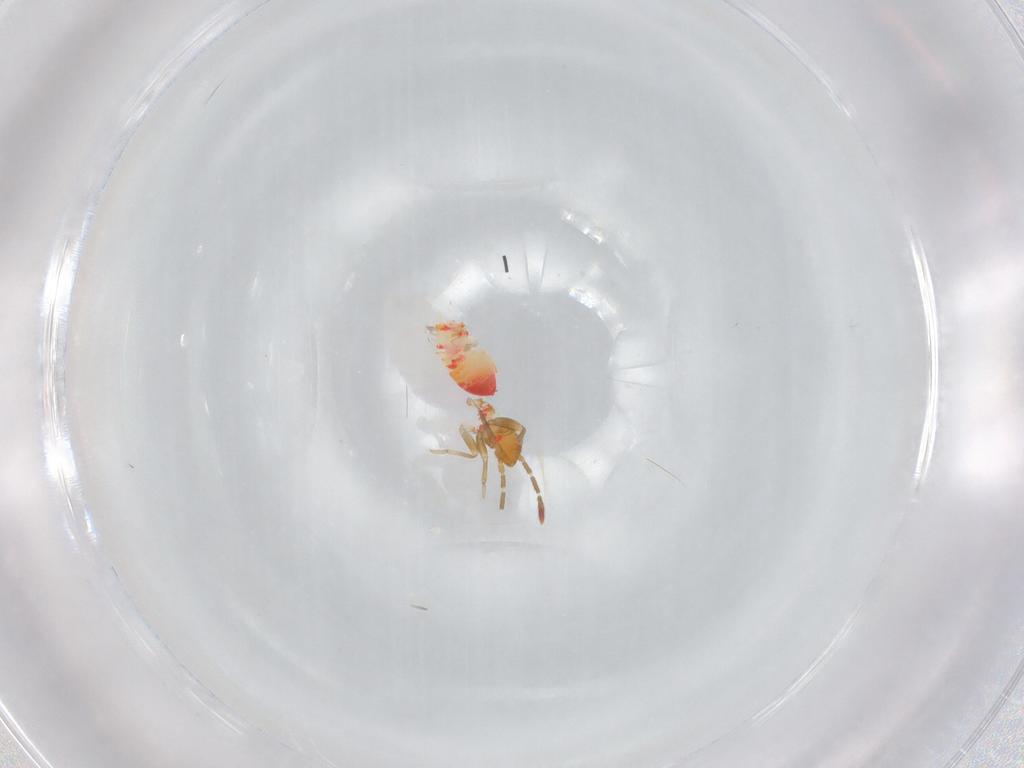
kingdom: Animalia
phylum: Arthropoda
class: Insecta
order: Hemiptera
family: Miridae
